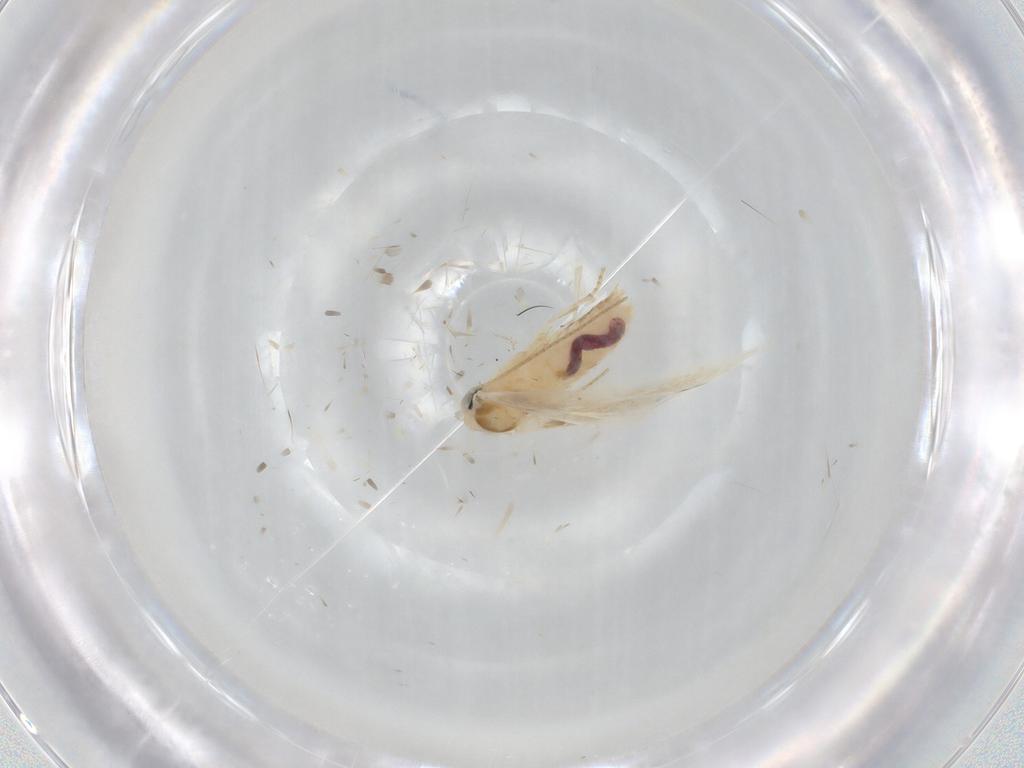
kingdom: Animalia
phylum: Arthropoda
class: Insecta
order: Lepidoptera
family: Bucculatricidae
